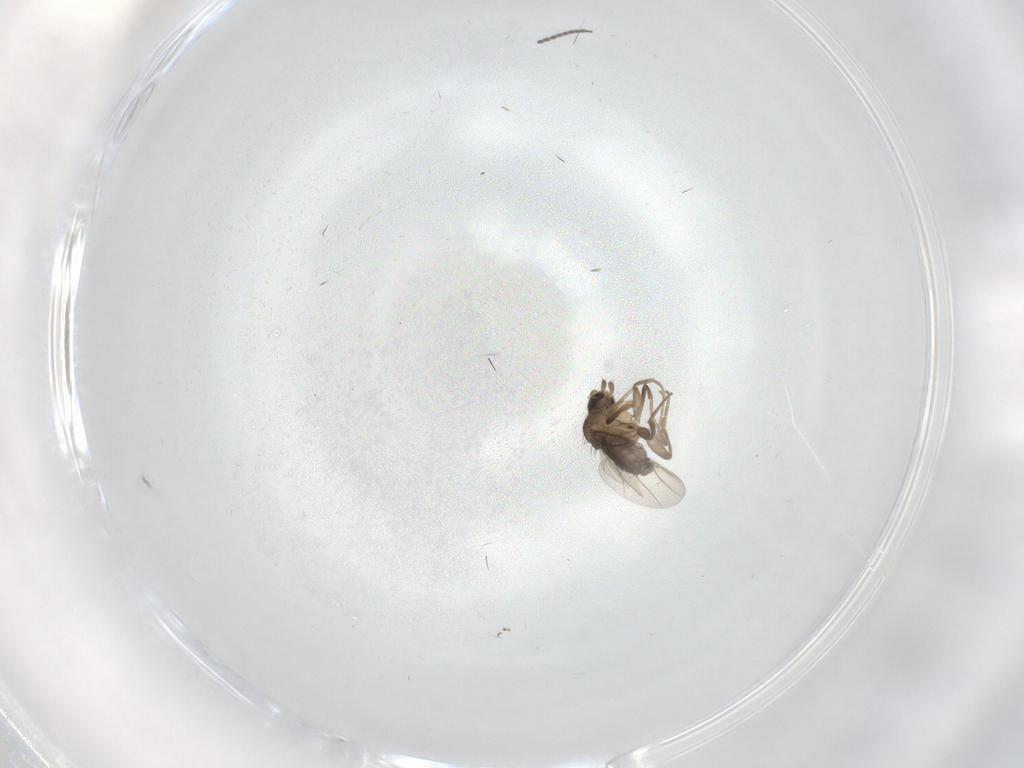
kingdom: Animalia
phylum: Arthropoda
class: Insecta
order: Diptera
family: Sciaridae
